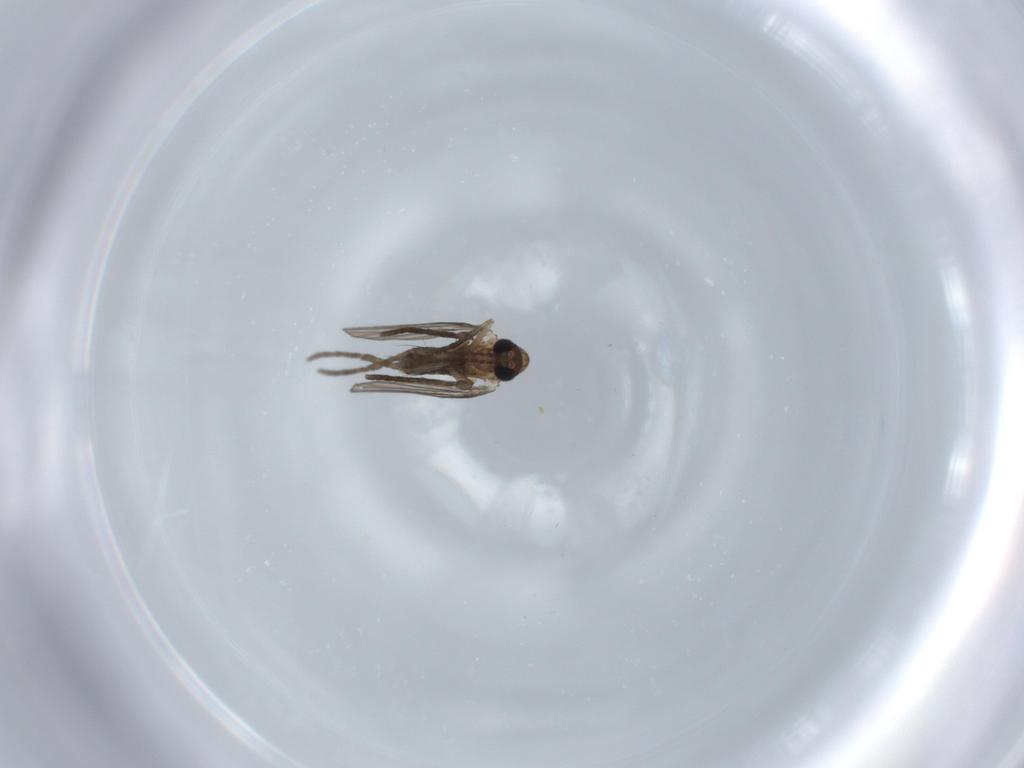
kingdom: Animalia
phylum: Arthropoda
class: Insecta
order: Diptera
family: Psychodidae
